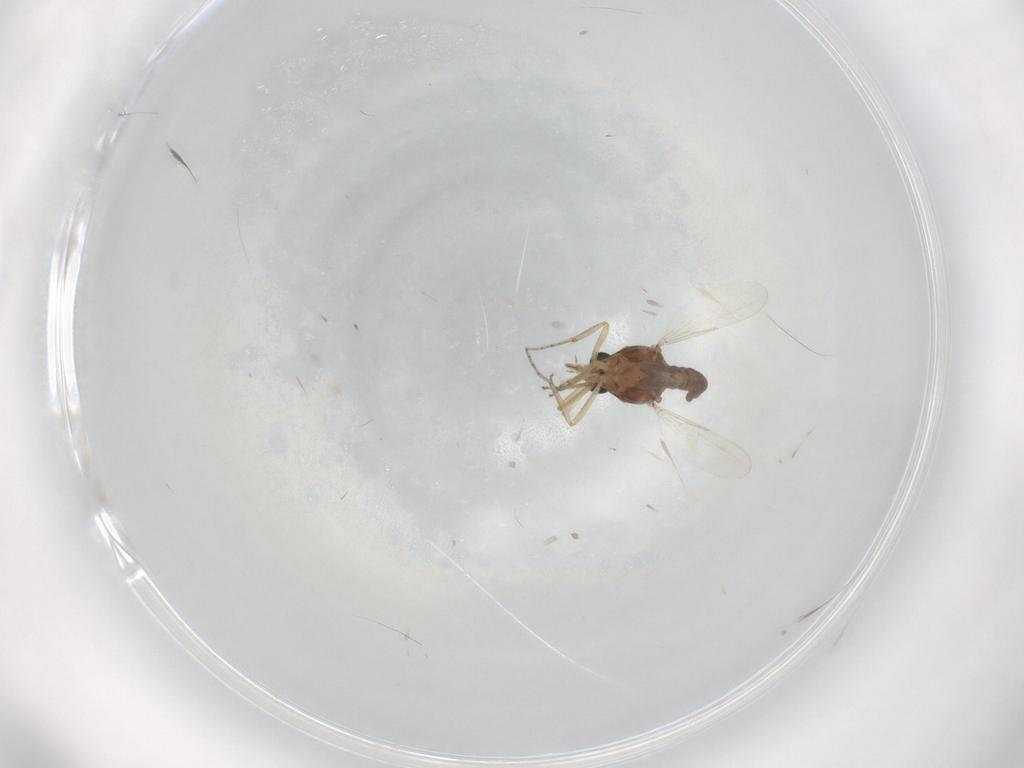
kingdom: Animalia
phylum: Arthropoda
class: Insecta
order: Diptera
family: Ceratopogonidae
